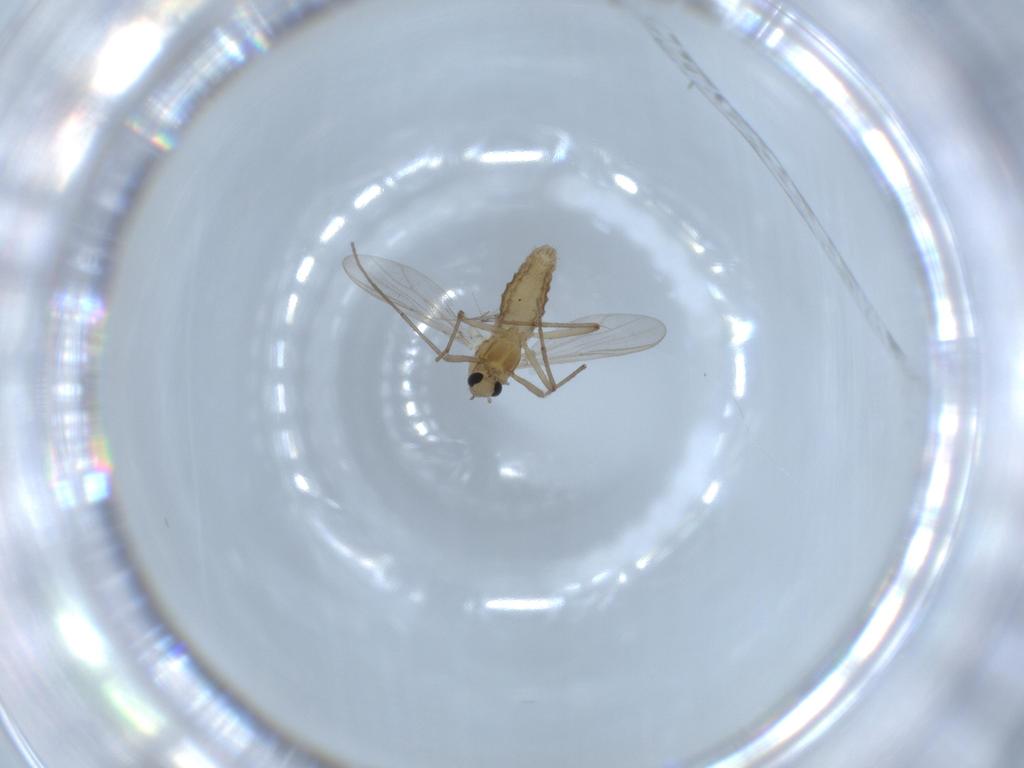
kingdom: Animalia
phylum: Arthropoda
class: Insecta
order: Diptera
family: Chironomidae
